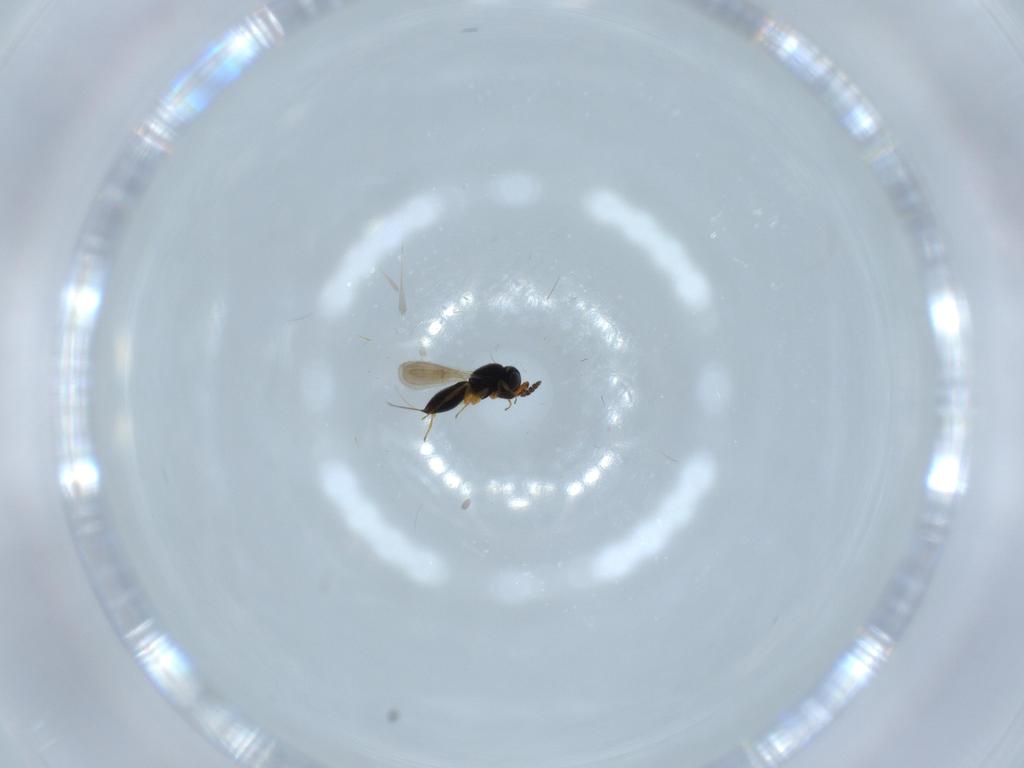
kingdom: Animalia
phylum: Arthropoda
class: Insecta
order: Hymenoptera
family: Scelionidae
